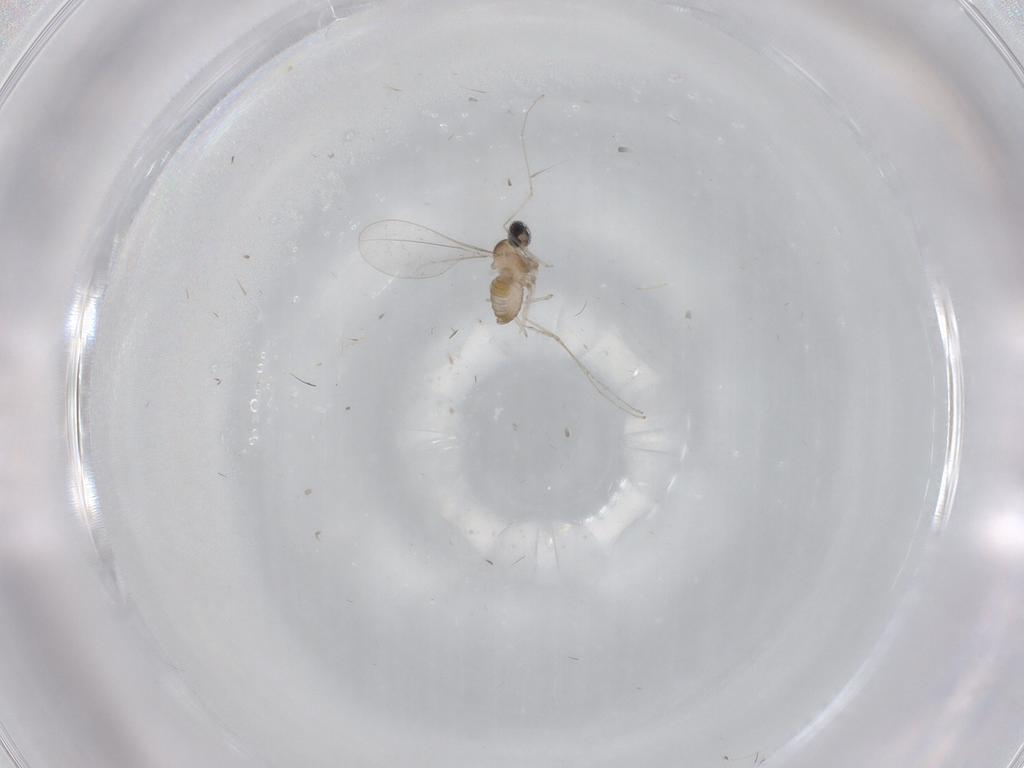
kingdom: Animalia
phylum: Arthropoda
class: Insecta
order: Diptera
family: Cecidomyiidae
